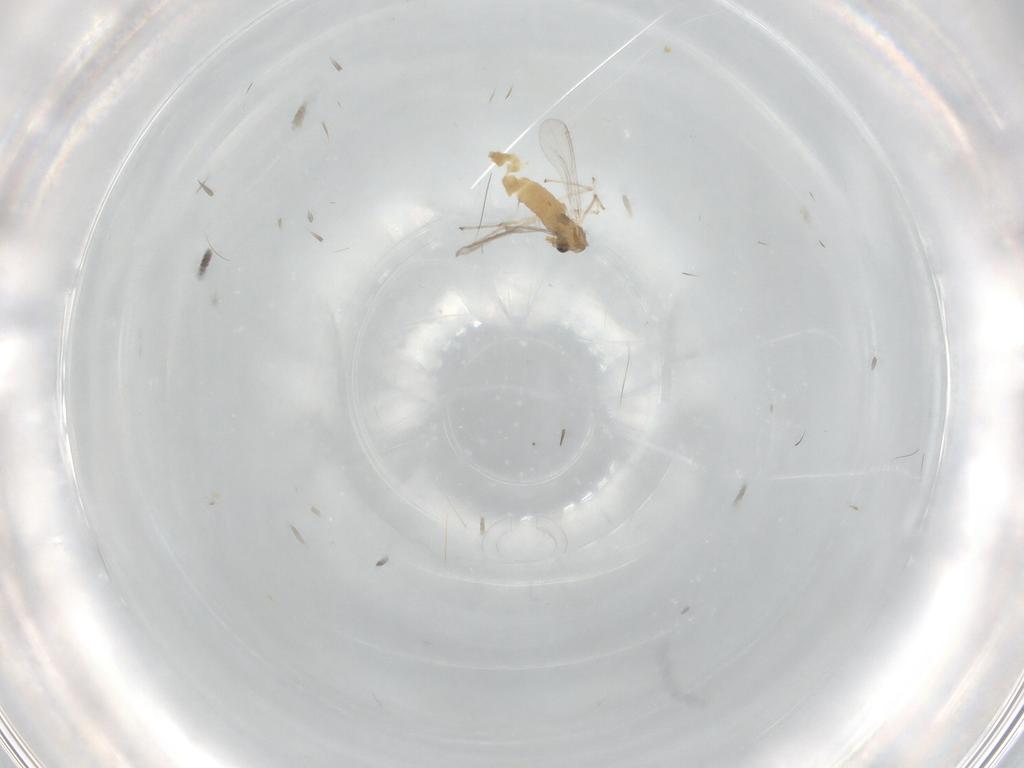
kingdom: Animalia
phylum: Arthropoda
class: Insecta
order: Diptera
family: Chironomidae
